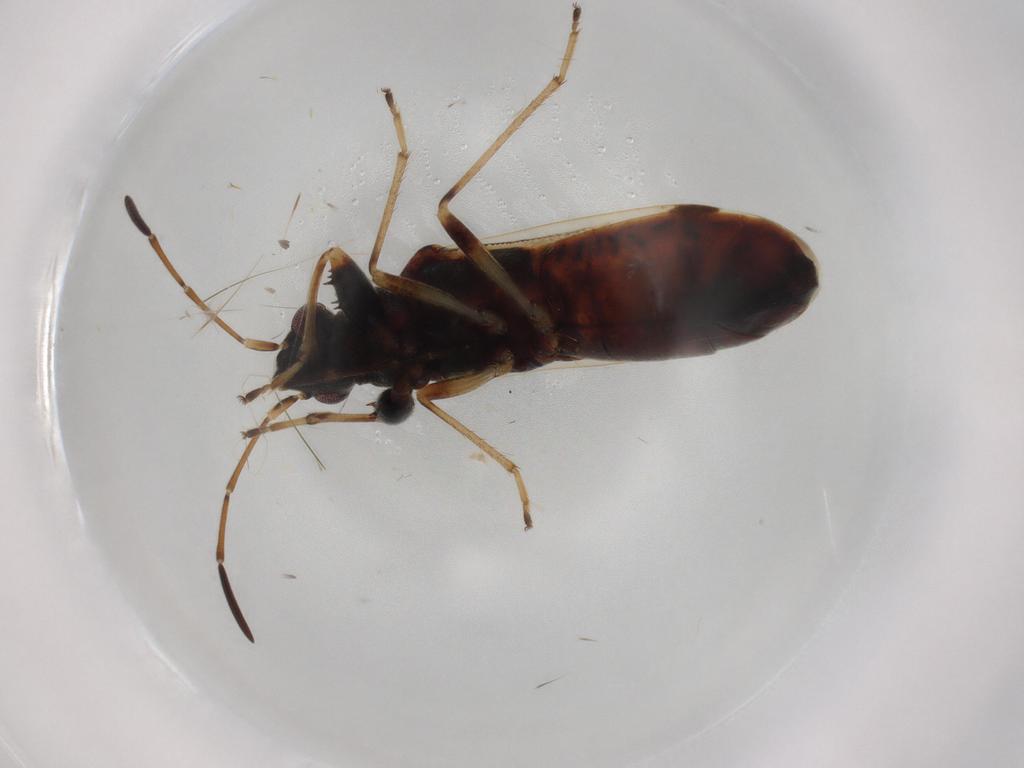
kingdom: Animalia
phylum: Arthropoda
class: Insecta
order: Hemiptera
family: Rhyparochromidae
